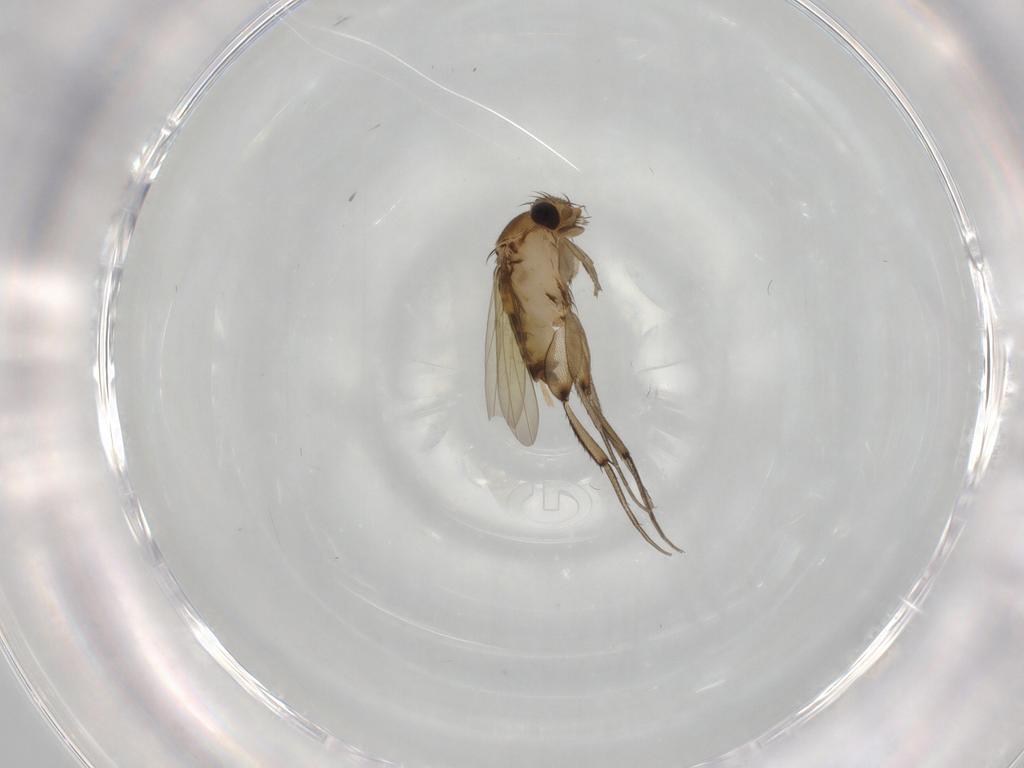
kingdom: Animalia
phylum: Arthropoda
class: Insecta
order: Diptera
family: Phoridae
